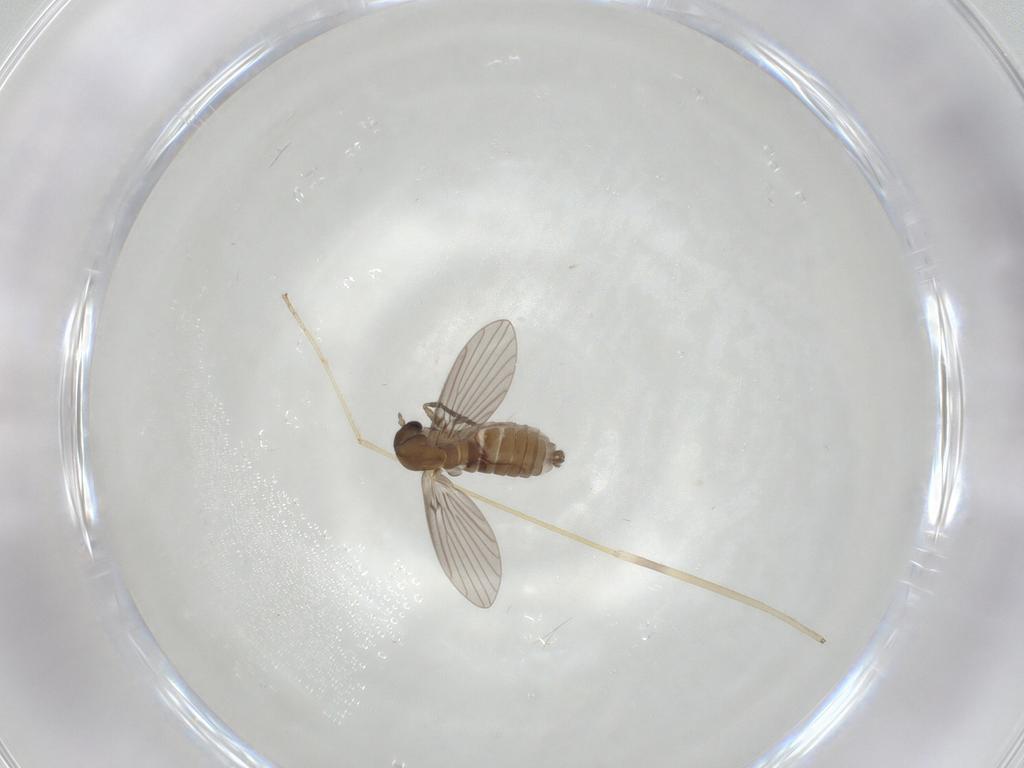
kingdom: Animalia
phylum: Arthropoda
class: Insecta
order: Diptera
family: Psychodidae
